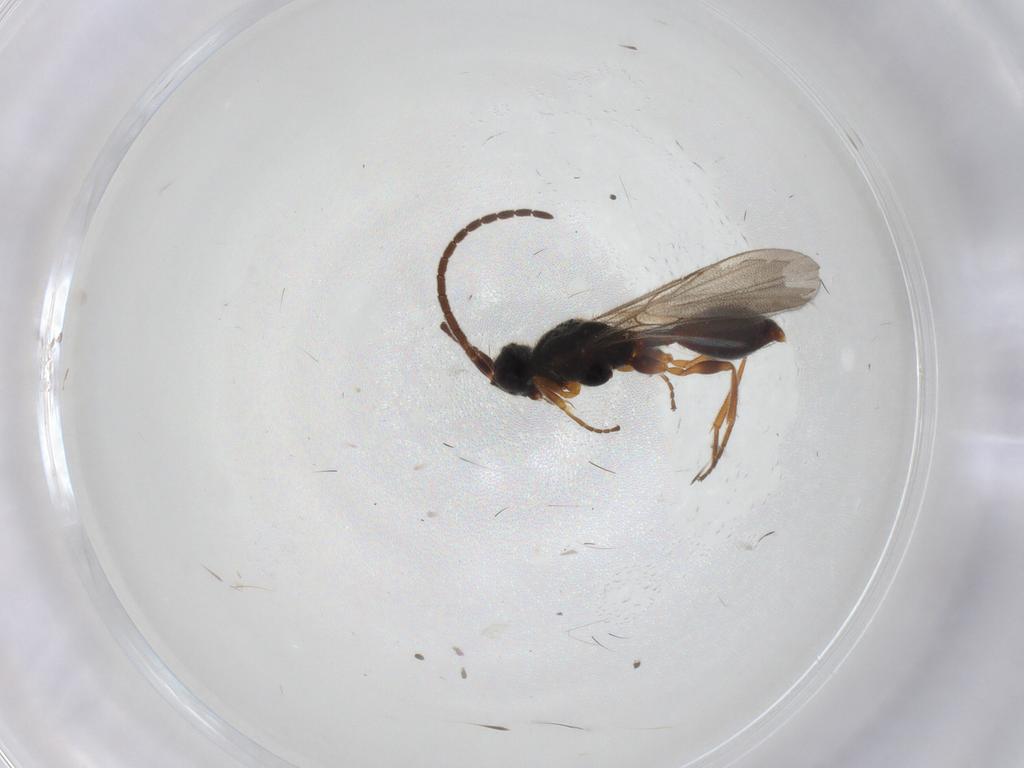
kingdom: Animalia
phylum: Arthropoda
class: Insecta
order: Hymenoptera
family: Diapriidae
